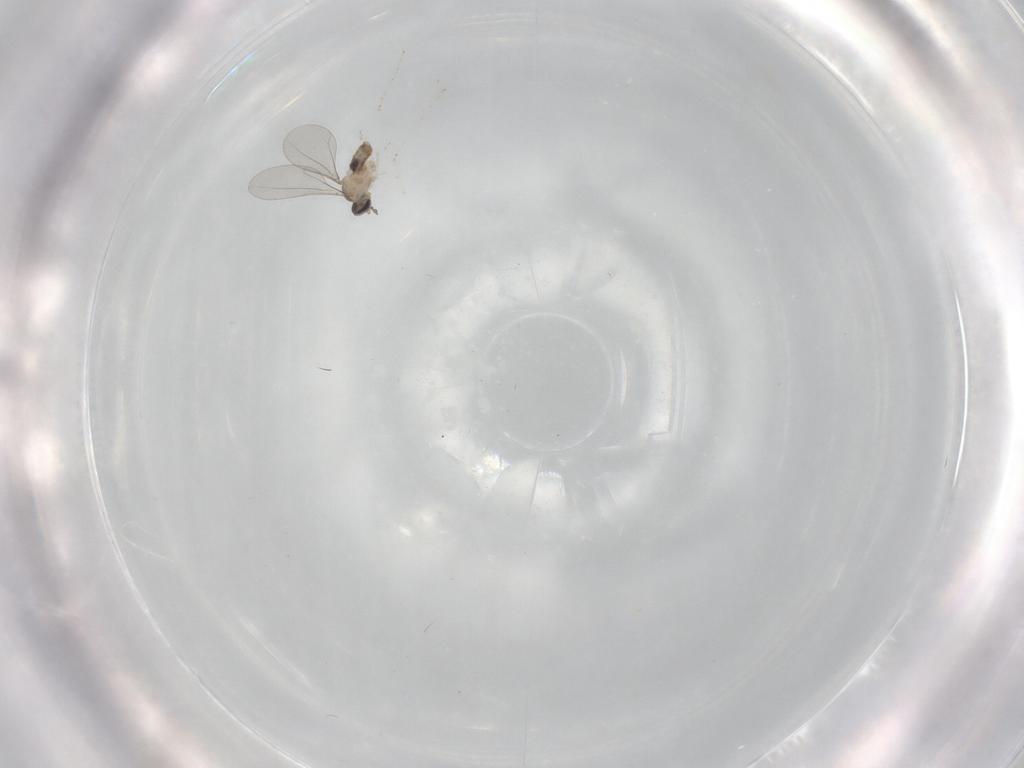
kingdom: Animalia
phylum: Arthropoda
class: Insecta
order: Diptera
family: Cecidomyiidae
